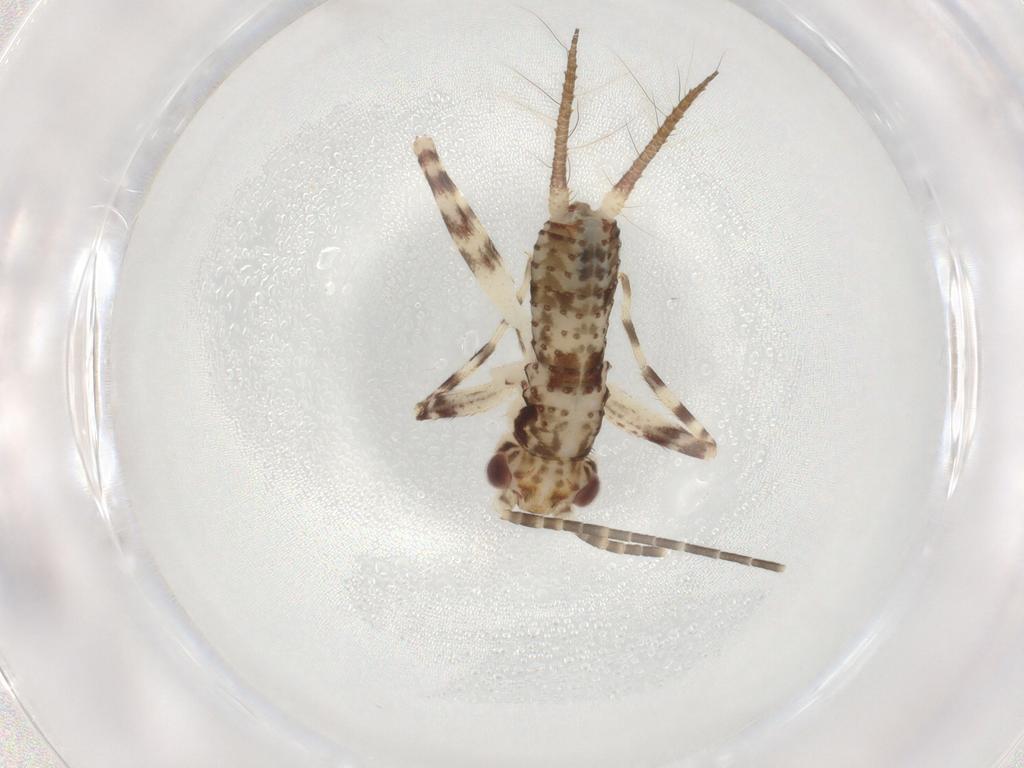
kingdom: Animalia
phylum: Arthropoda
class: Insecta
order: Orthoptera
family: Gryllidae
